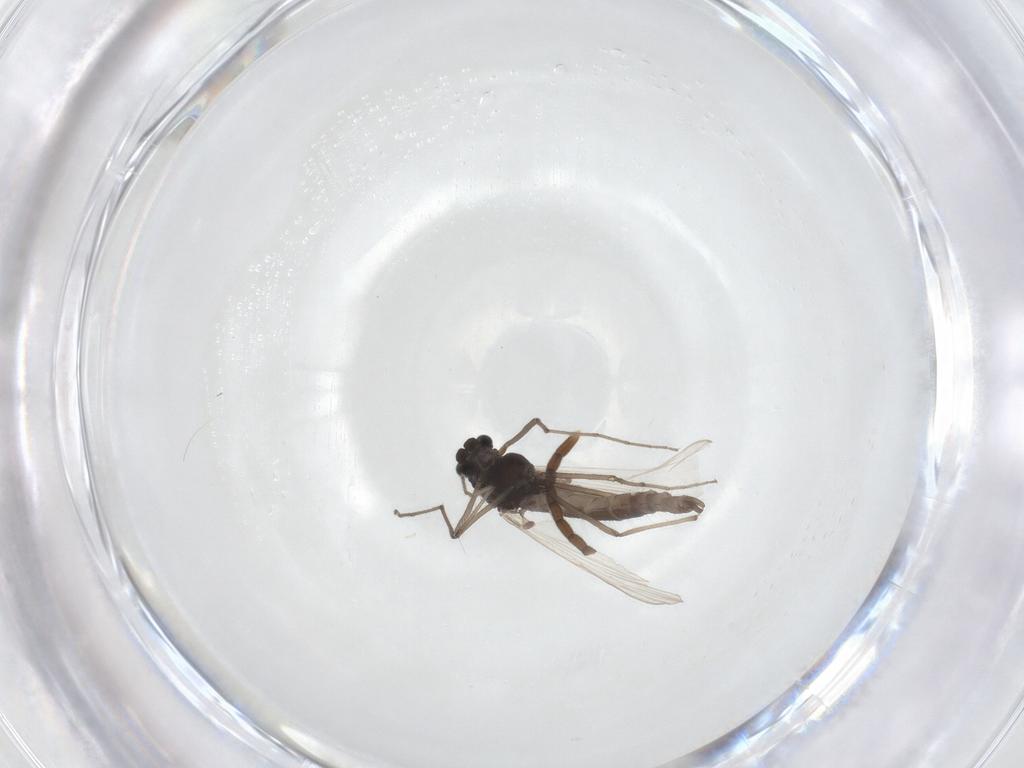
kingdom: Animalia
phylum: Arthropoda
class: Insecta
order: Diptera
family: Chironomidae
